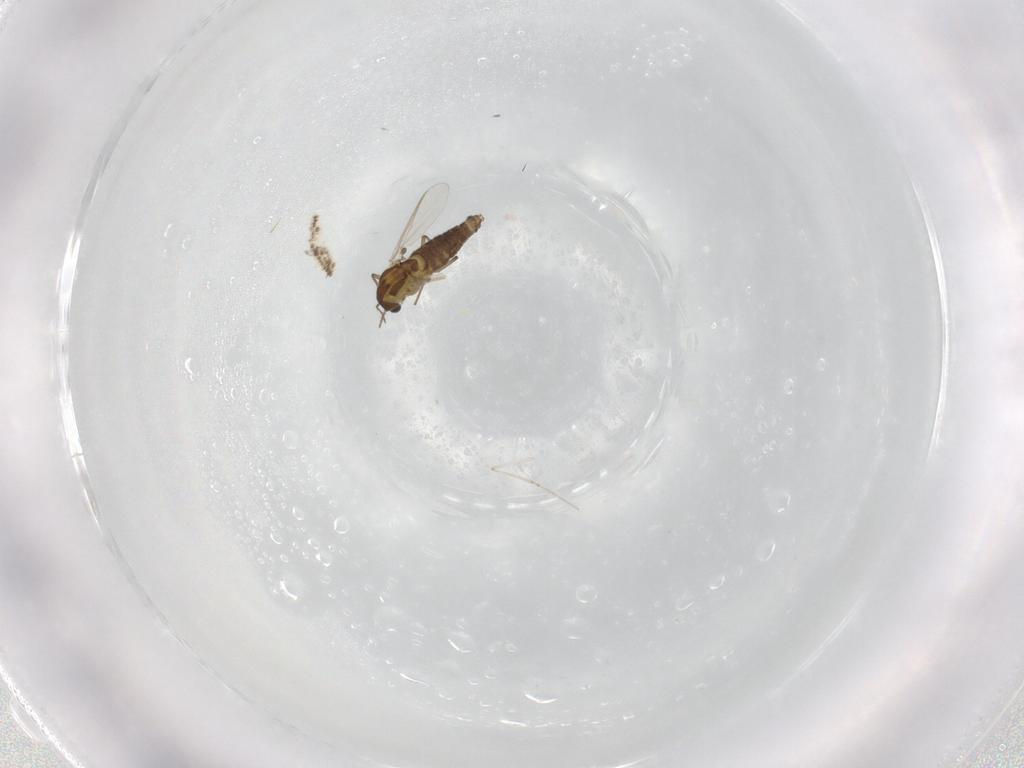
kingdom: Animalia
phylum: Arthropoda
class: Insecta
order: Diptera
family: Chironomidae
